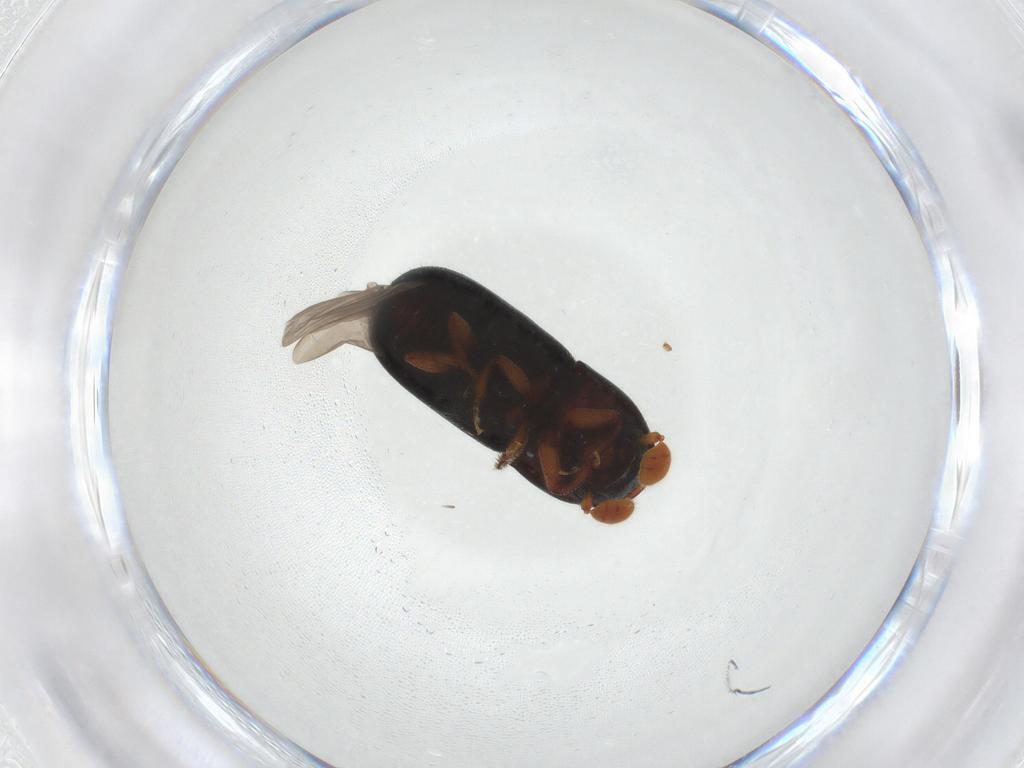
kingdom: Animalia
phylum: Arthropoda
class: Insecta
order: Coleoptera
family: Curculionidae
